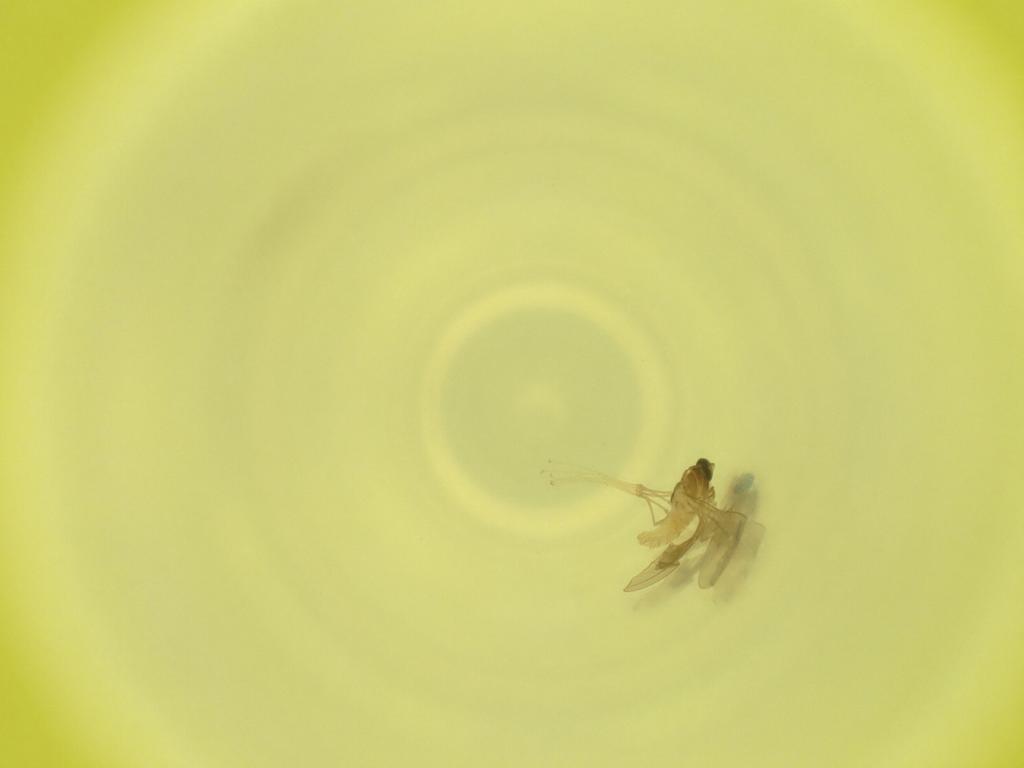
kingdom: Animalia
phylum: Arthropoda
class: Insecta
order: Diptera
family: Cecidomyiidae
